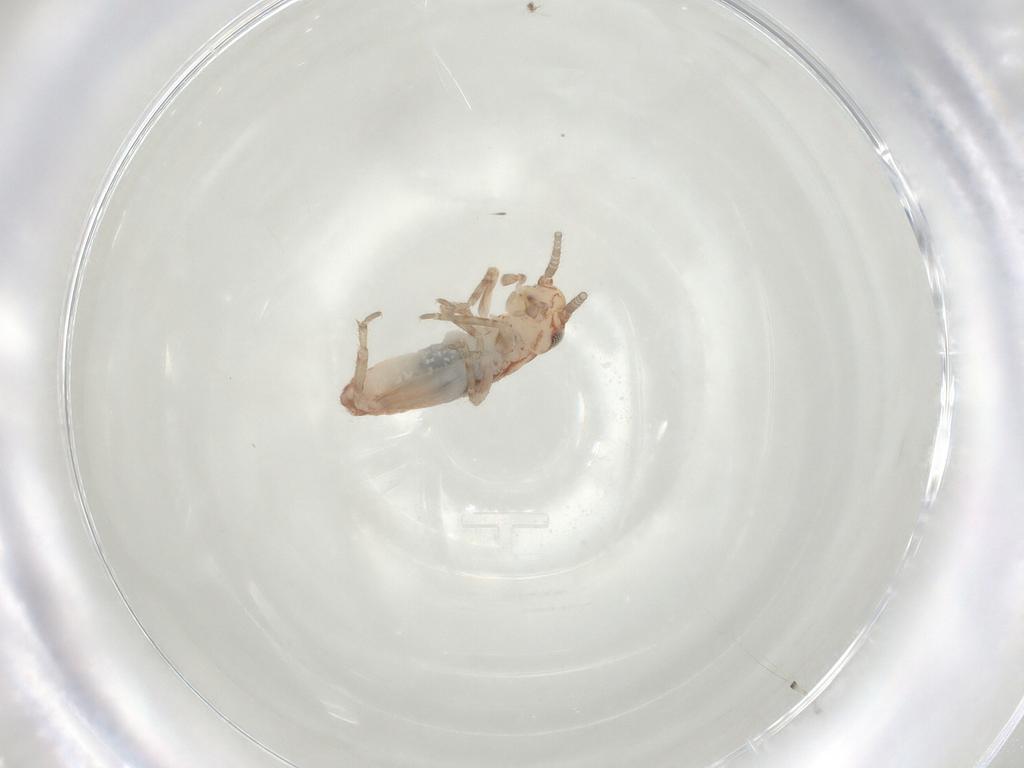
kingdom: Animalia
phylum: Arthropoda
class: Insecta
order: Orthoptera
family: Gryllidae
